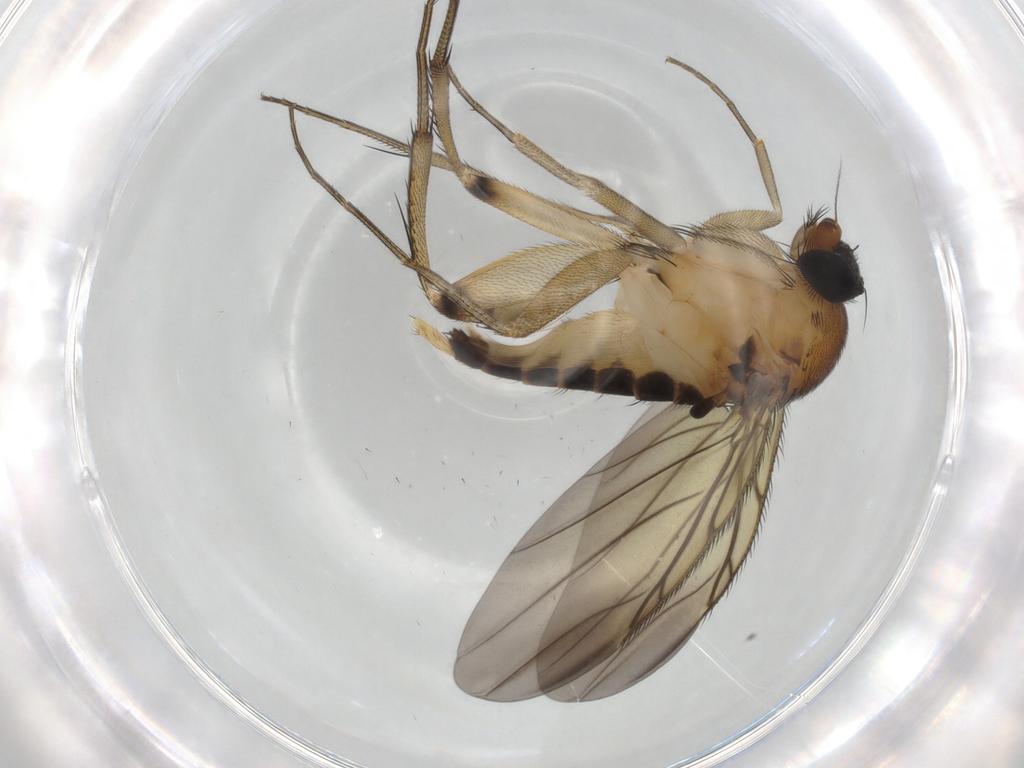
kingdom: Animalia
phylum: Arthropoda
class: Insecta
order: Diptera
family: Phoridae
